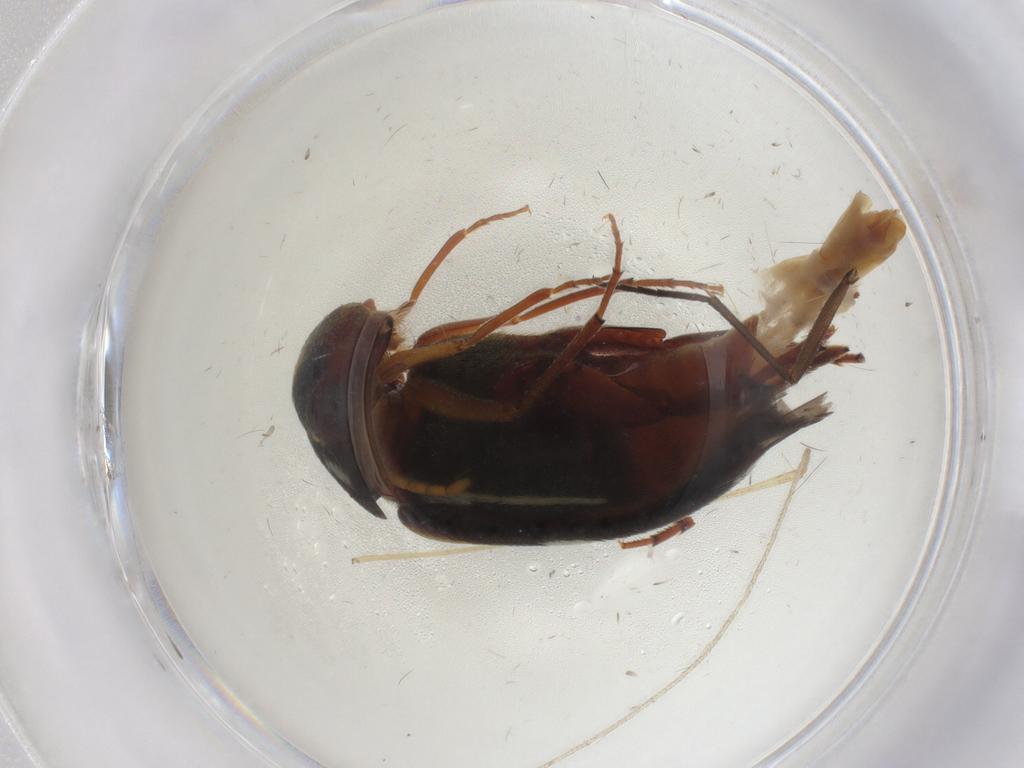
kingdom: Animalia
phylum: Arthropoda
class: Insecta
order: Coleoptera
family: Mordellidae
